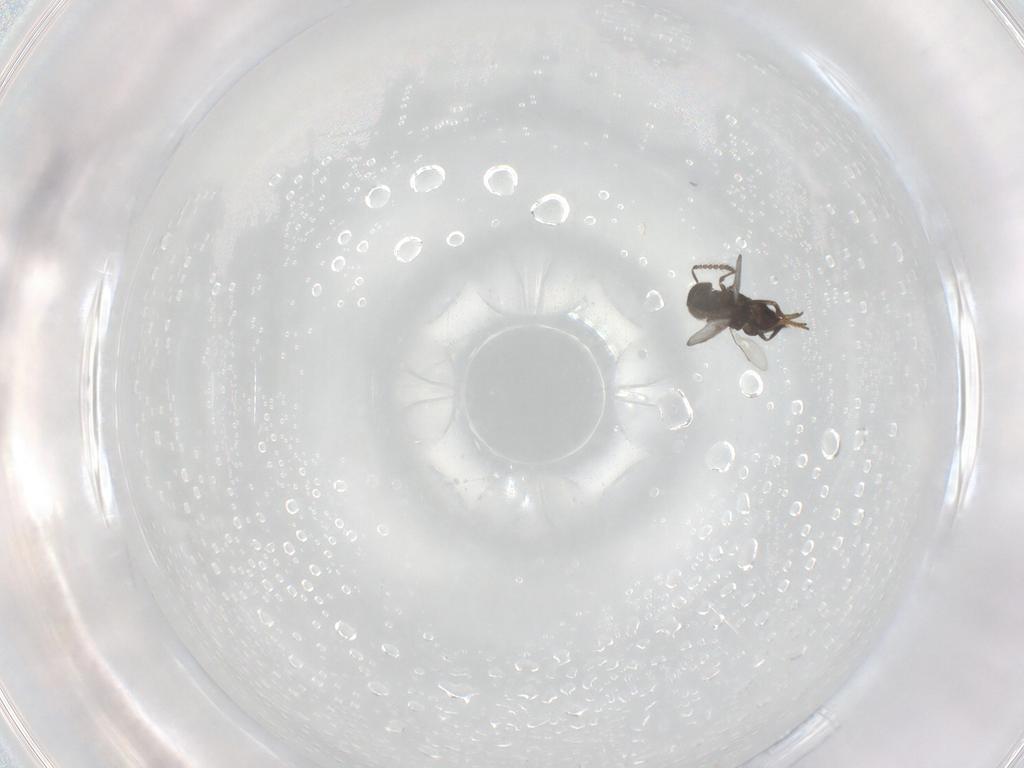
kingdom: Animalia
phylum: Arthropoda
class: Insecta
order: Hymenoptera
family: Encyrtidae
